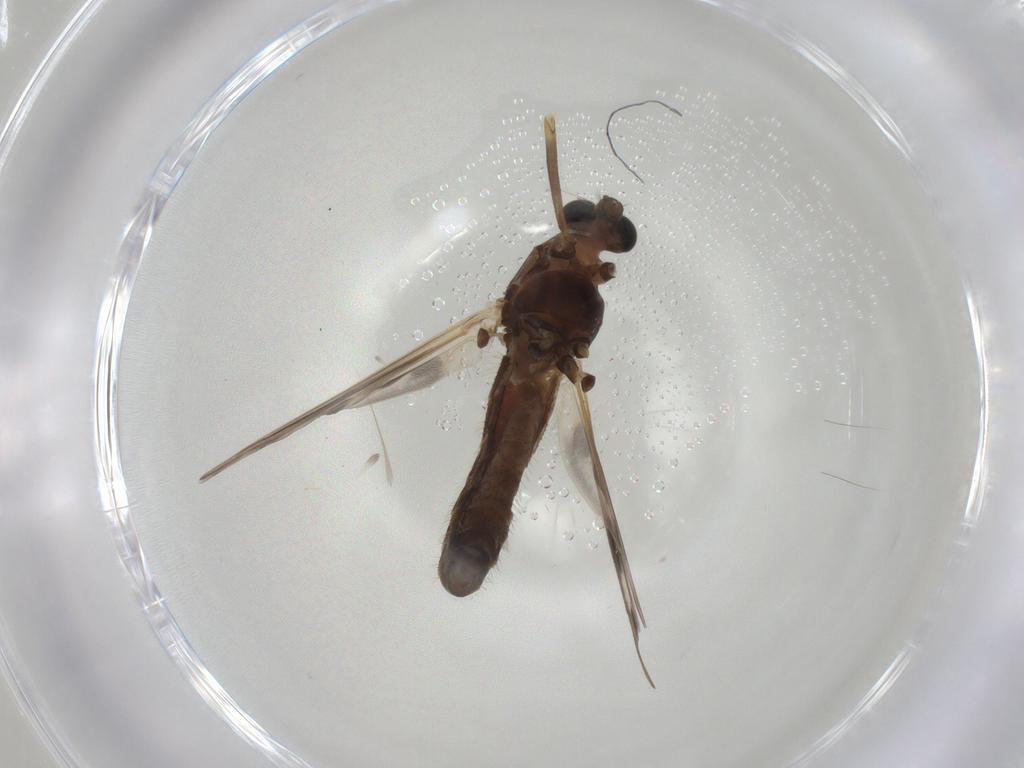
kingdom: Animalia
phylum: Arthropoda
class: Insecta
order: Diptera
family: Chironomidae
